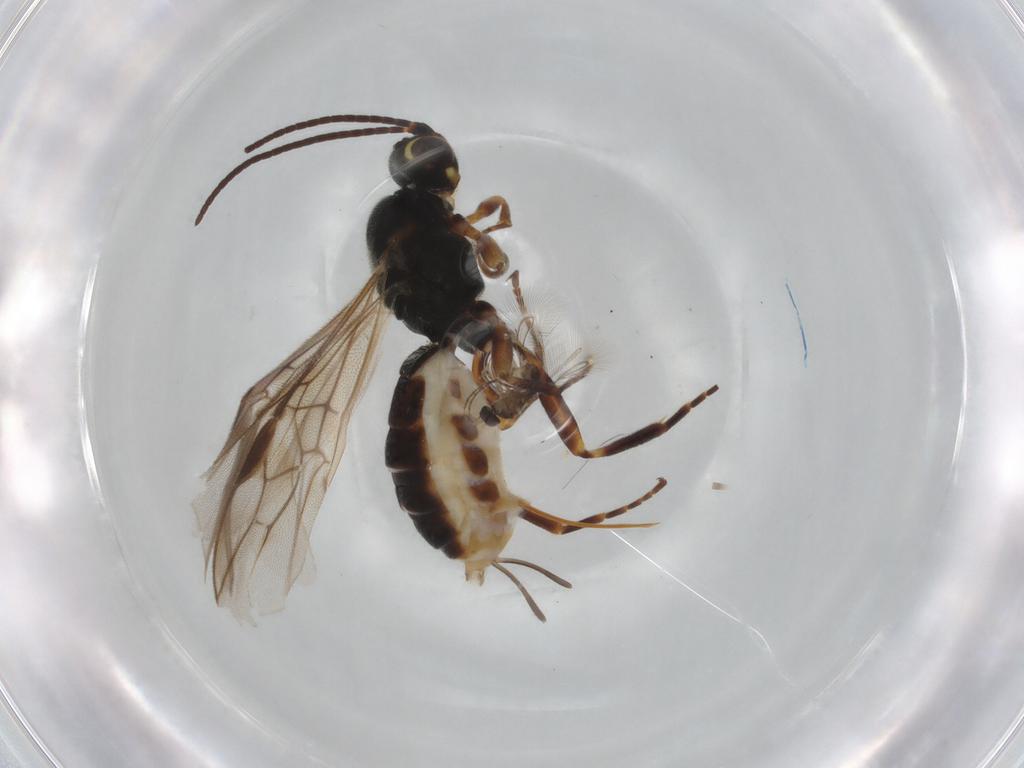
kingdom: Animalia
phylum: Arthropoda
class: Insecta
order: Hymenoptera
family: Braconidae
